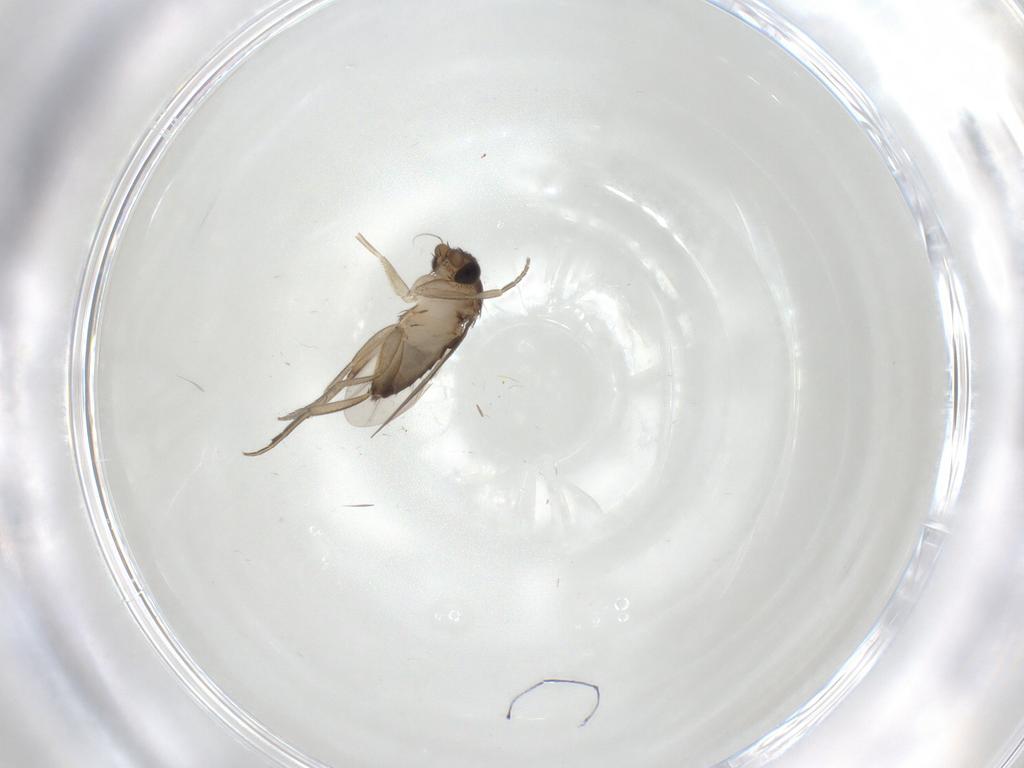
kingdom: Animalia
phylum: Arthropoda
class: Insecta
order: Diptera
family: Phoridae
